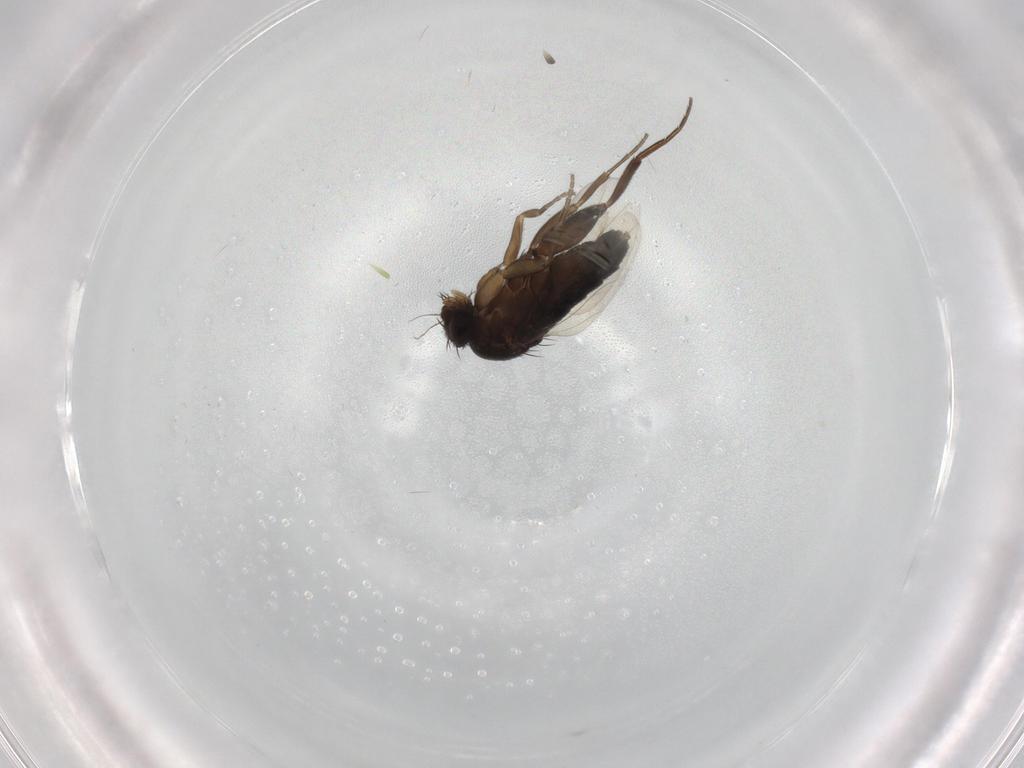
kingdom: Animalia
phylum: Arthropoda
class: Insecta
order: Diptera
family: Phoridae
